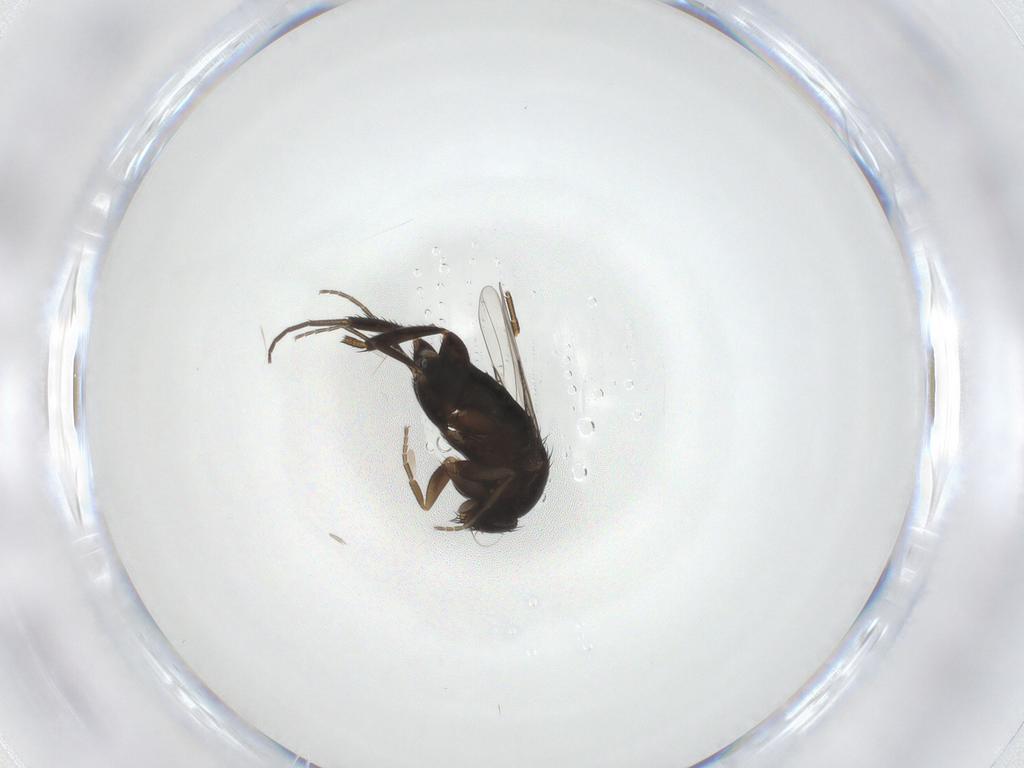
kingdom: Animalia
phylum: Arthropoda
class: Insecta
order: Diptera
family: Phoridae
